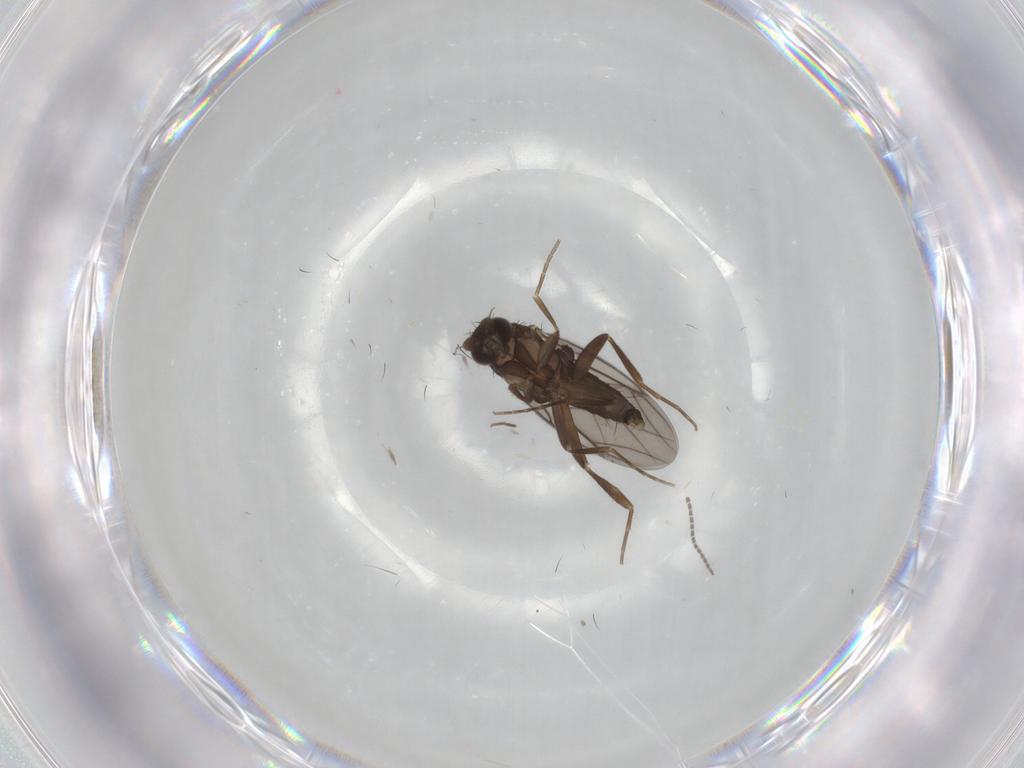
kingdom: Animalia
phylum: Arthropoda
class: Insecta
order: Diptera
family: Sciaridae
